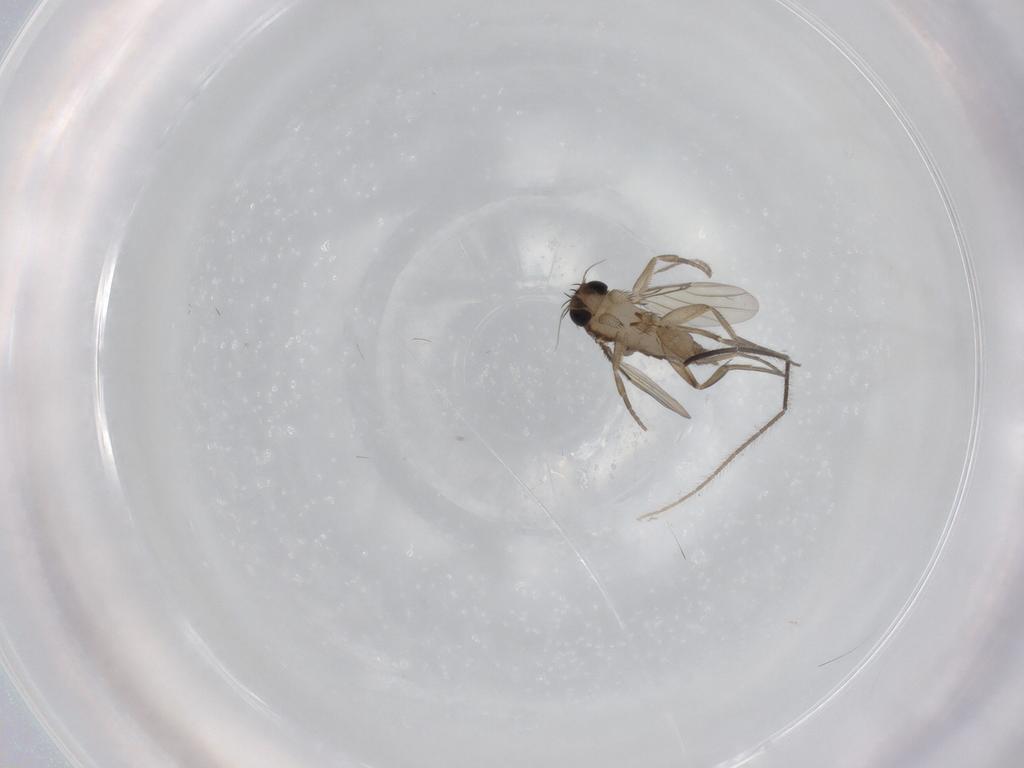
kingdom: Animalia
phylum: Arthropoda
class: Insecta
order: Diptera
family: Phoridae
